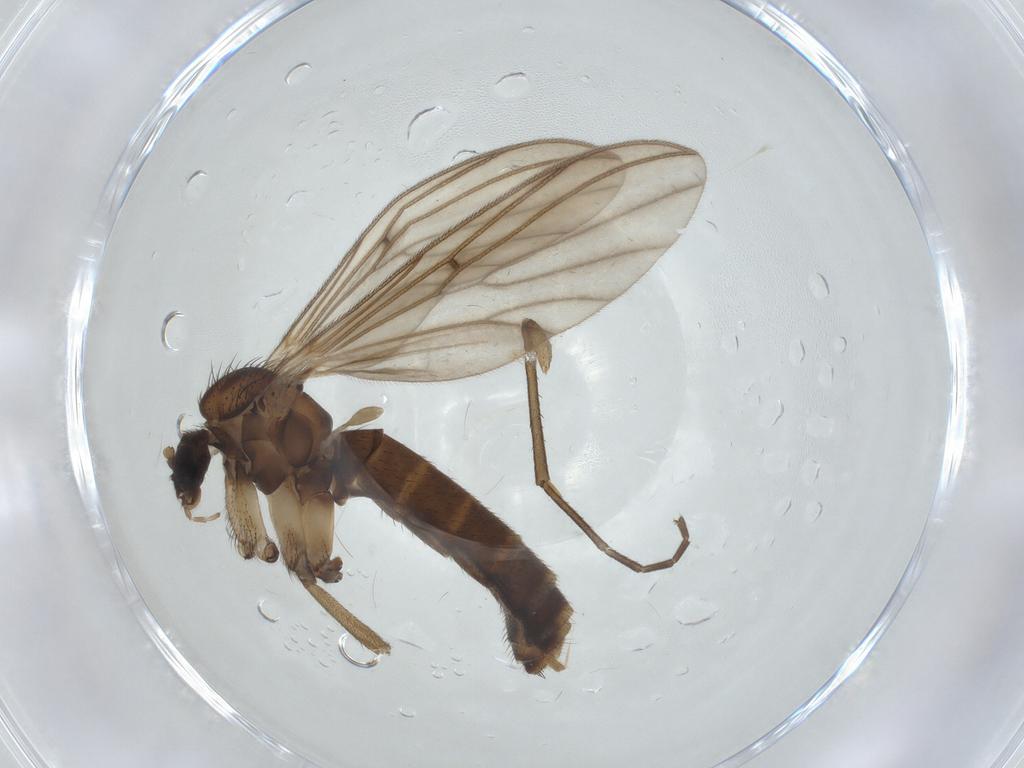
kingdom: Animalia
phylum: Arthropoda
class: Insecta
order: Diptera
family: Mycetophilidae
